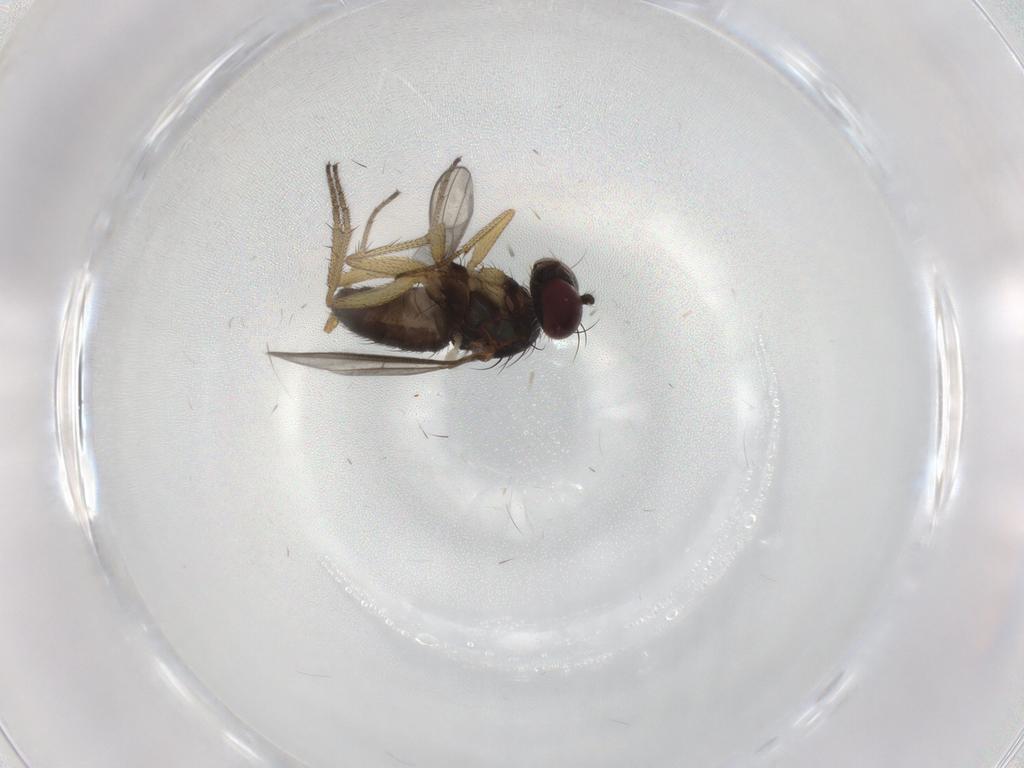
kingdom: Animalia
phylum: Arthropoda
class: Insecta
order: Diptera
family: Dolichopodidae
